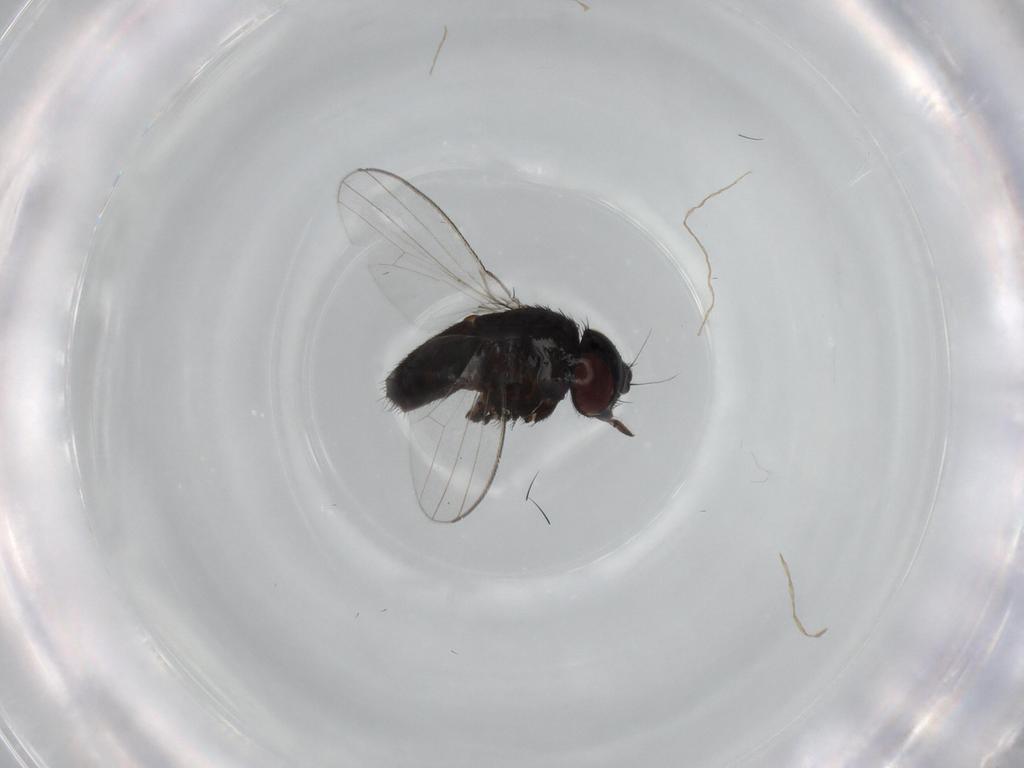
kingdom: Animalia
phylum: Arthropoda
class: Insecta
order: Diptera
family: Milichiidae
